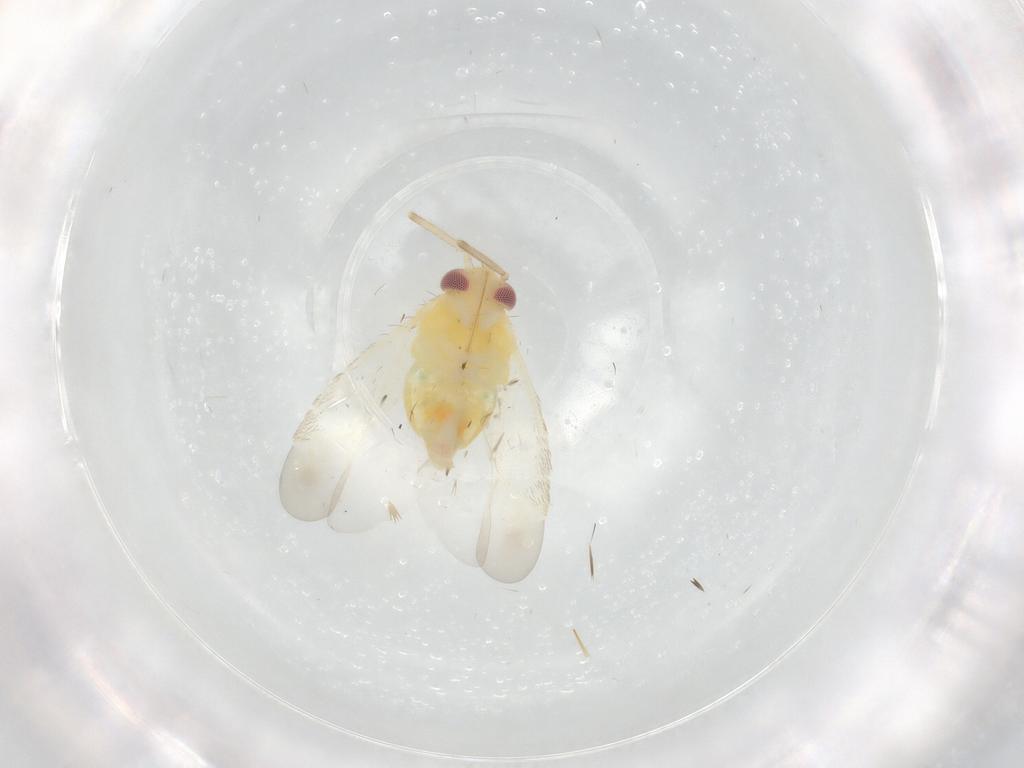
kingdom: Animalia
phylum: Arthropoda
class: Insecta
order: Hemiptera
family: Miridae
